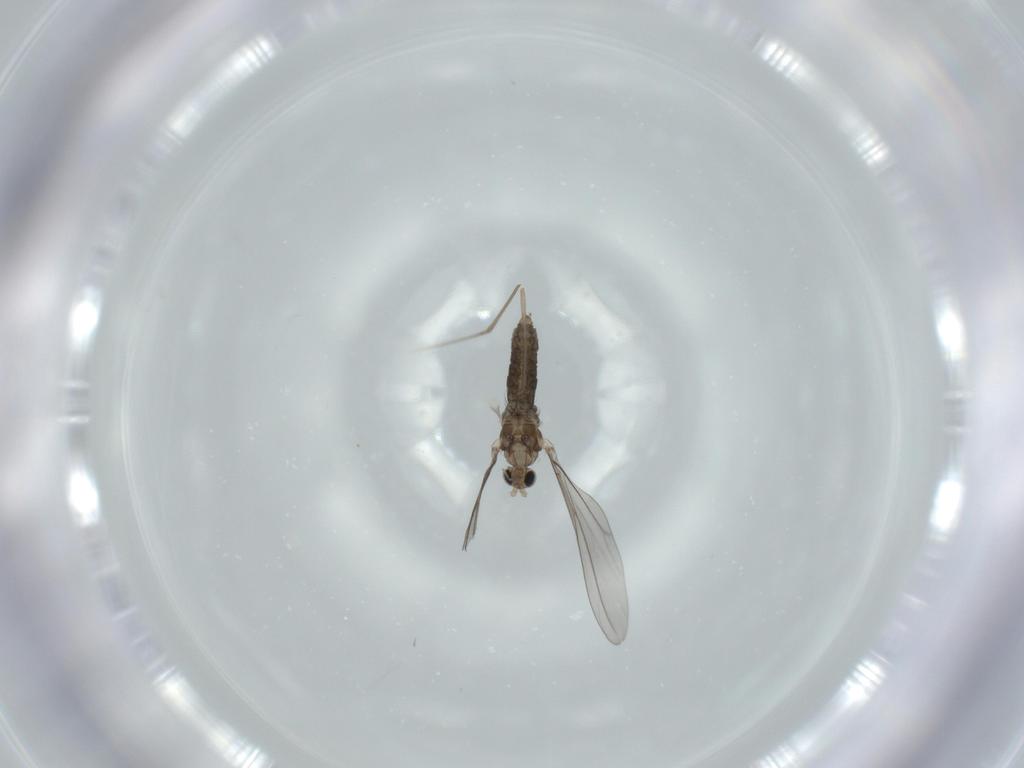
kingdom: Animalia
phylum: Arthropoda
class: Insecta
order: Diptera
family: Cecidomyiidae
